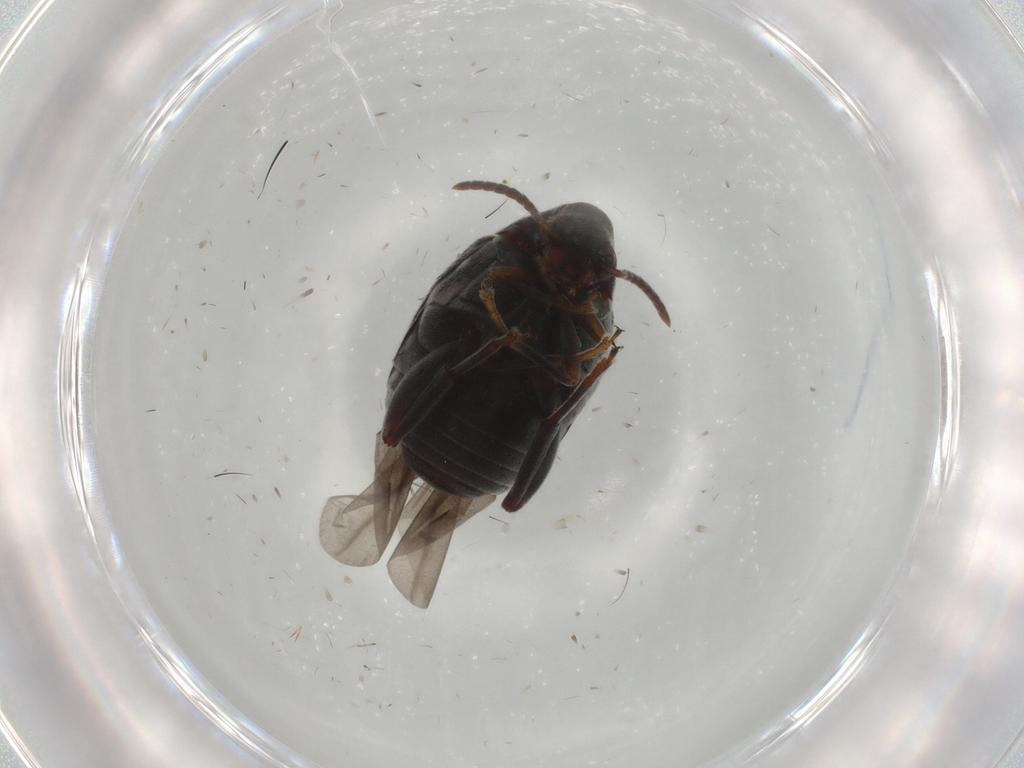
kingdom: Animalia
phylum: Arthropoda
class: Insecta
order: Coleoptera
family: Chrysomelidae
